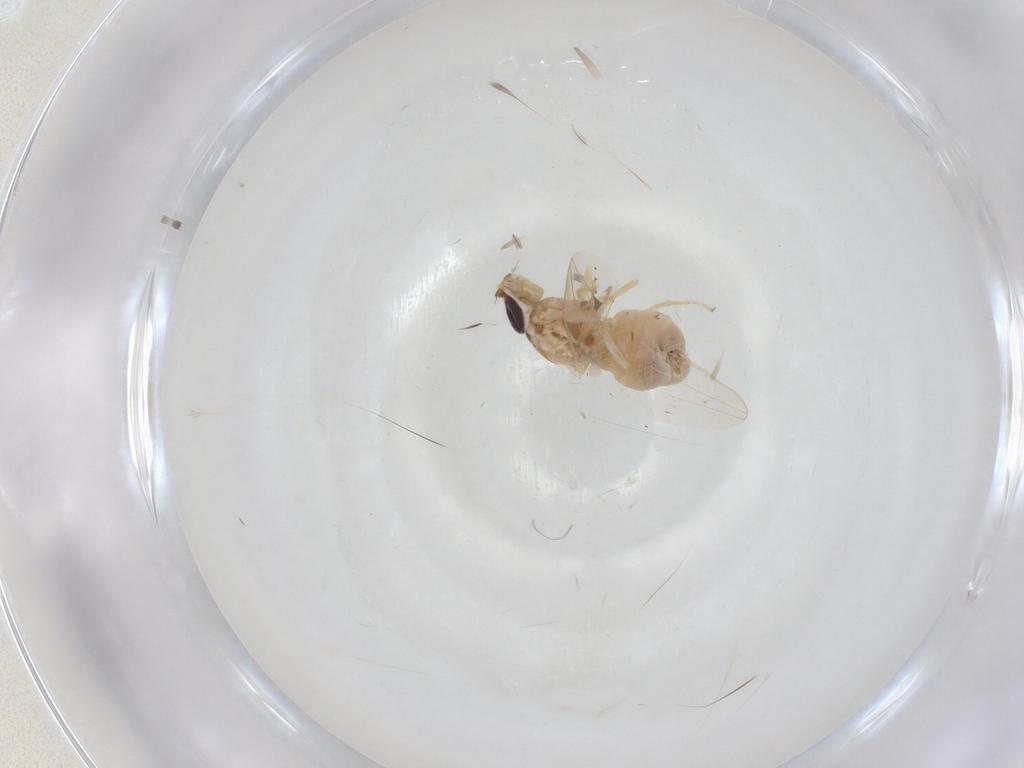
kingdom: Animalia
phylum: Arthropoda
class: Insecta
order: Diptera
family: Chloropidae
